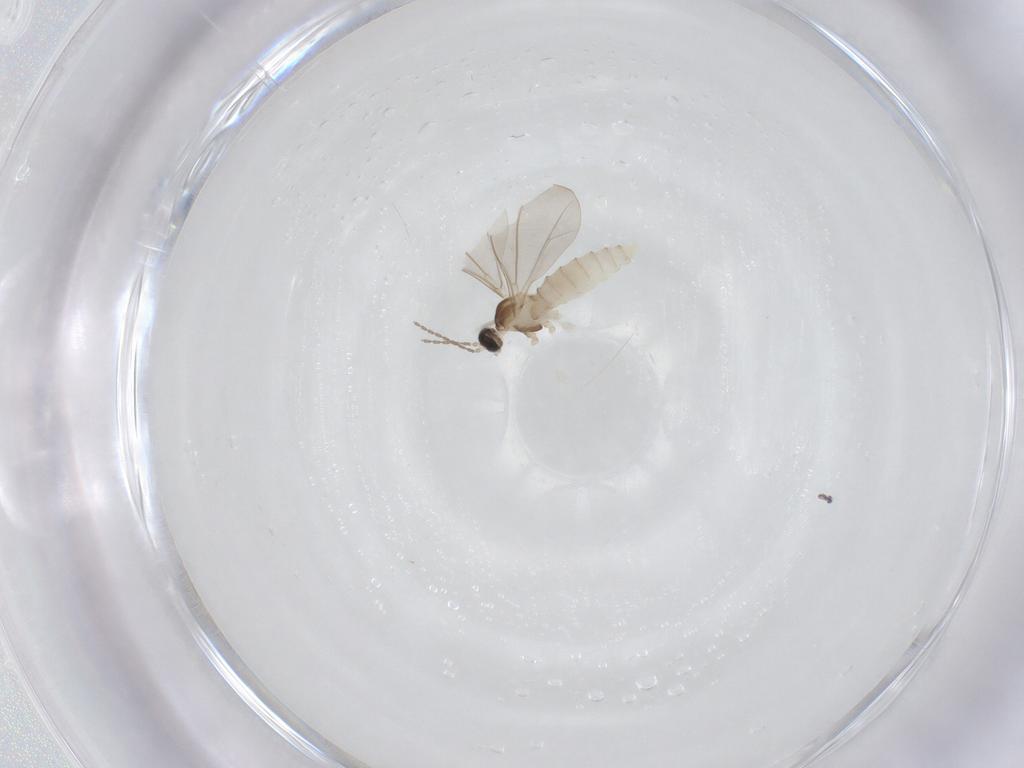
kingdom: Animalia
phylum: Arthropoda
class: Insecta
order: Diptera
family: Cecidomyiidae
